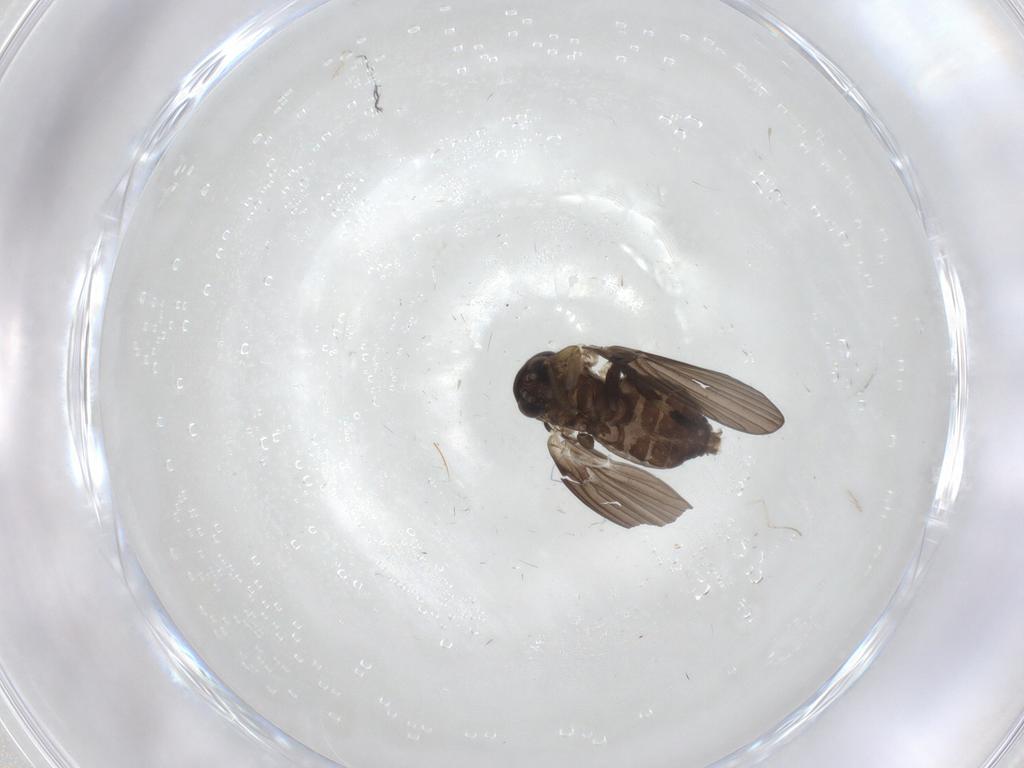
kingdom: Animalia
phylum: Arthropoda
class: Insecta
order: Diptera
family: Psychodidae
